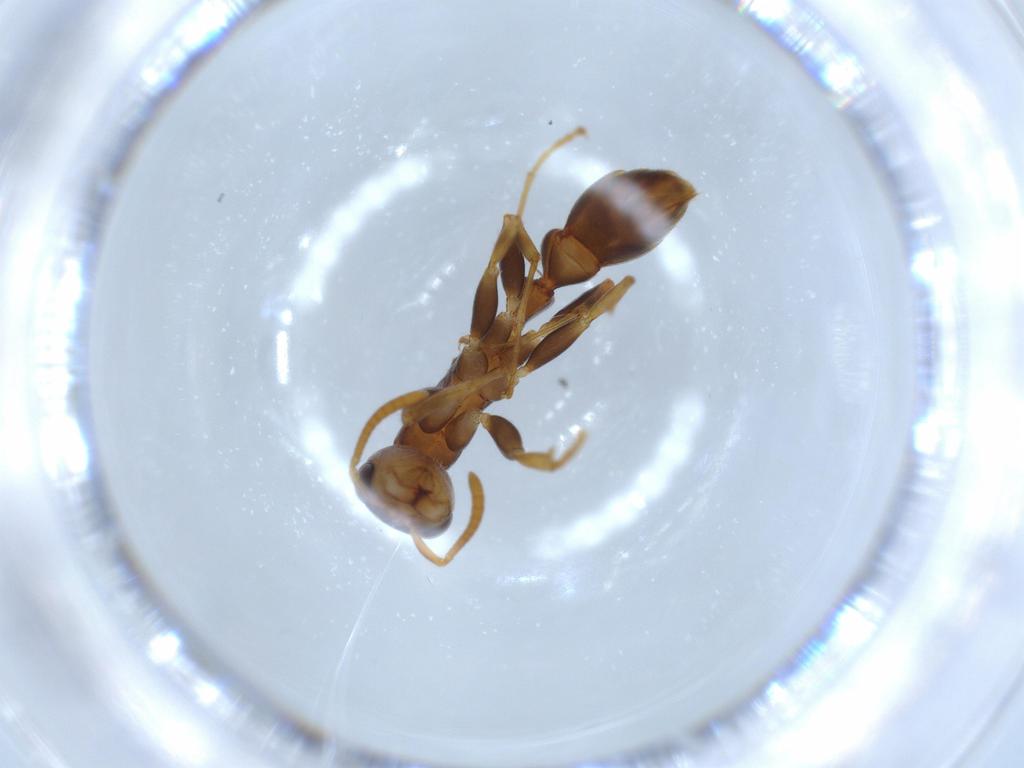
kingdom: Animalia
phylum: Arthropoda
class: Insecta
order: Hymenoptera
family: Formicidae
